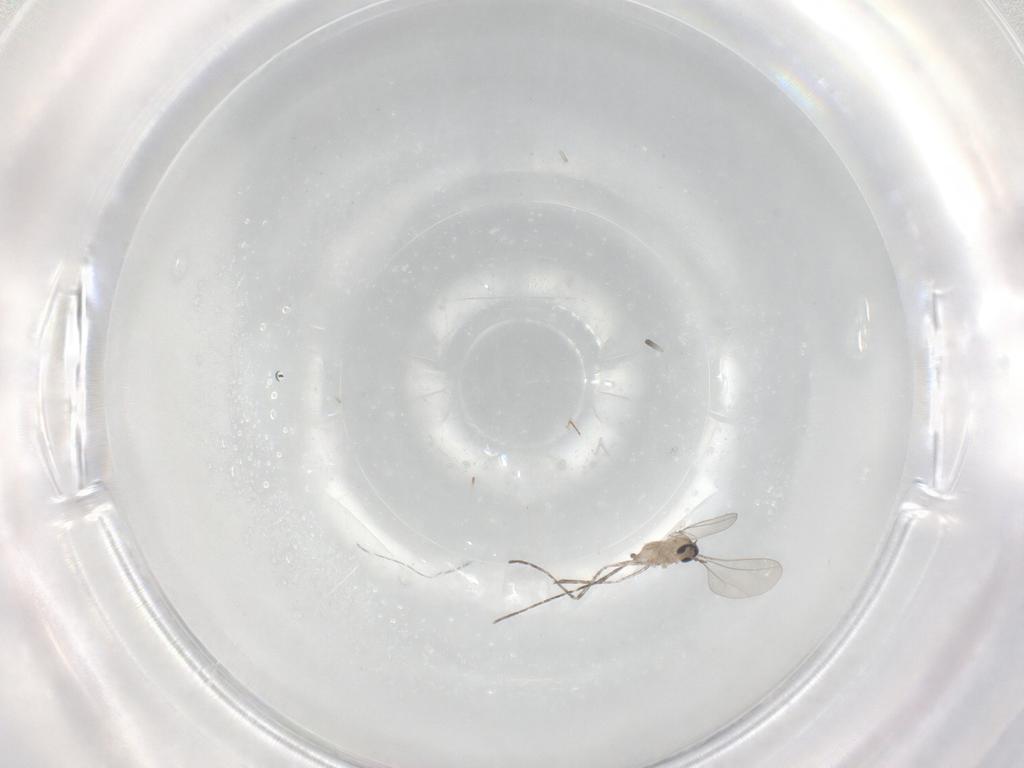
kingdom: Animalia
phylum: Arthropoda
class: Insecta
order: Diptera
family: Cecidomyiidae
